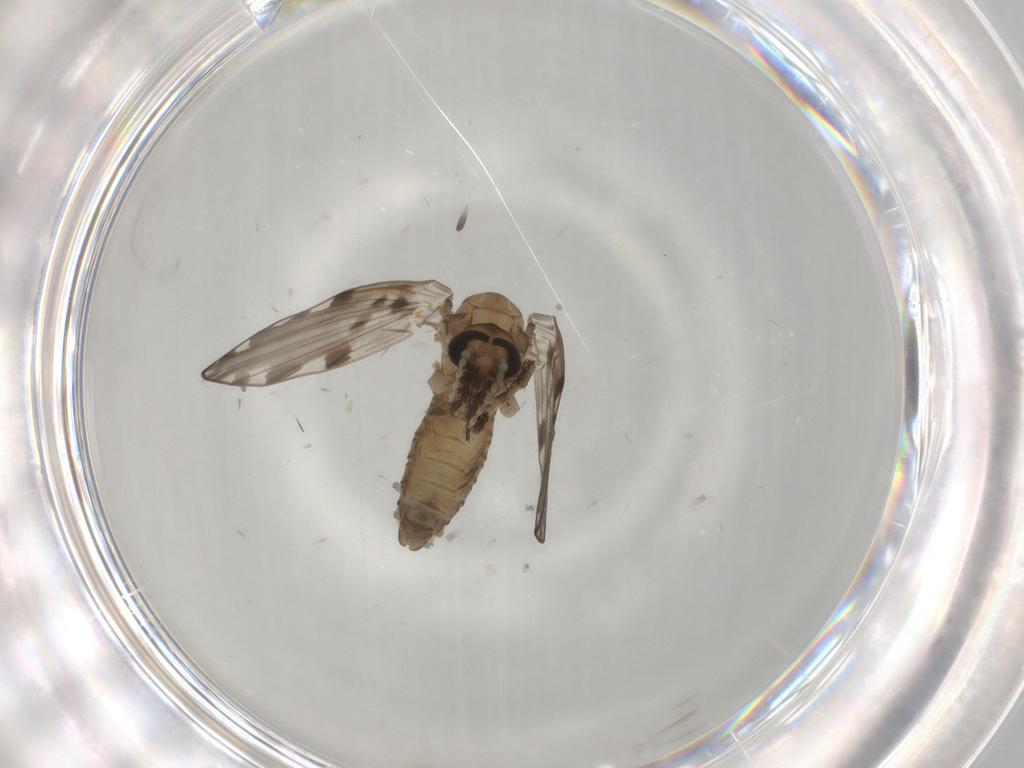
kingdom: Animalia
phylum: Arthropoda
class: Insecta
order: Diptera
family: Psychodidae
